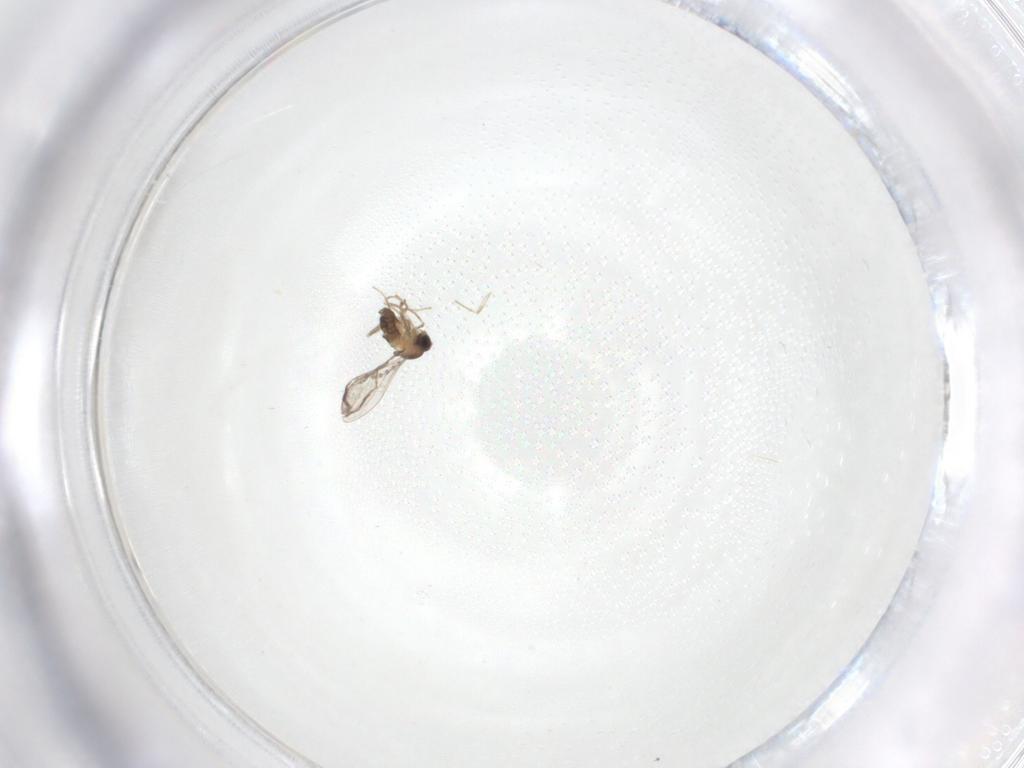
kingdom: Animalia
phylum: Arthropoda
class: Insecta
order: Diptera
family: Cecidomyiidae
